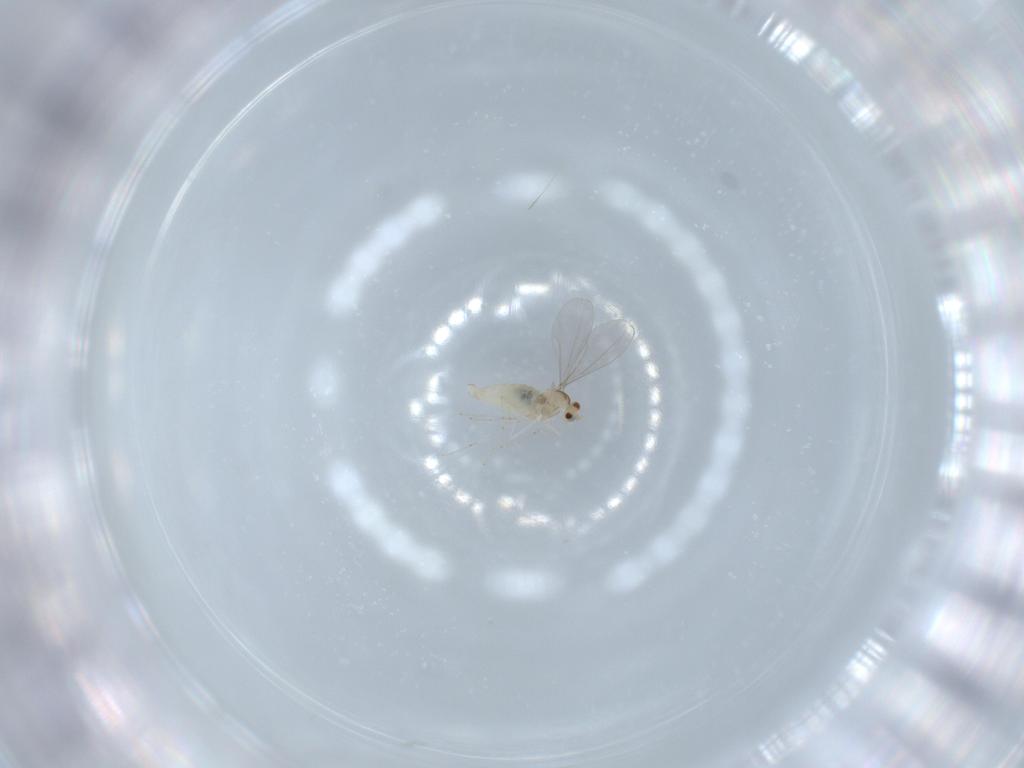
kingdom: Animalia
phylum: Arthropoda
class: Insecta
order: Diptera
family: Cecidomyiidae
